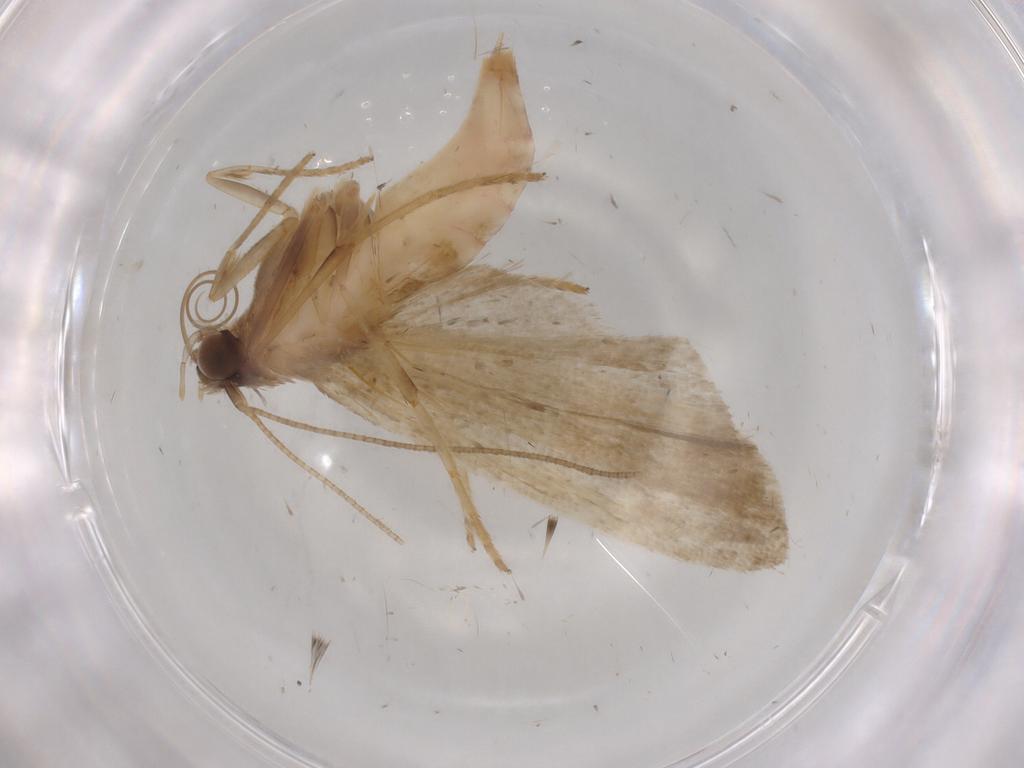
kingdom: Animalia
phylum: Arthropoda
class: Insecta
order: Lepidoptera
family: Noctuidae
